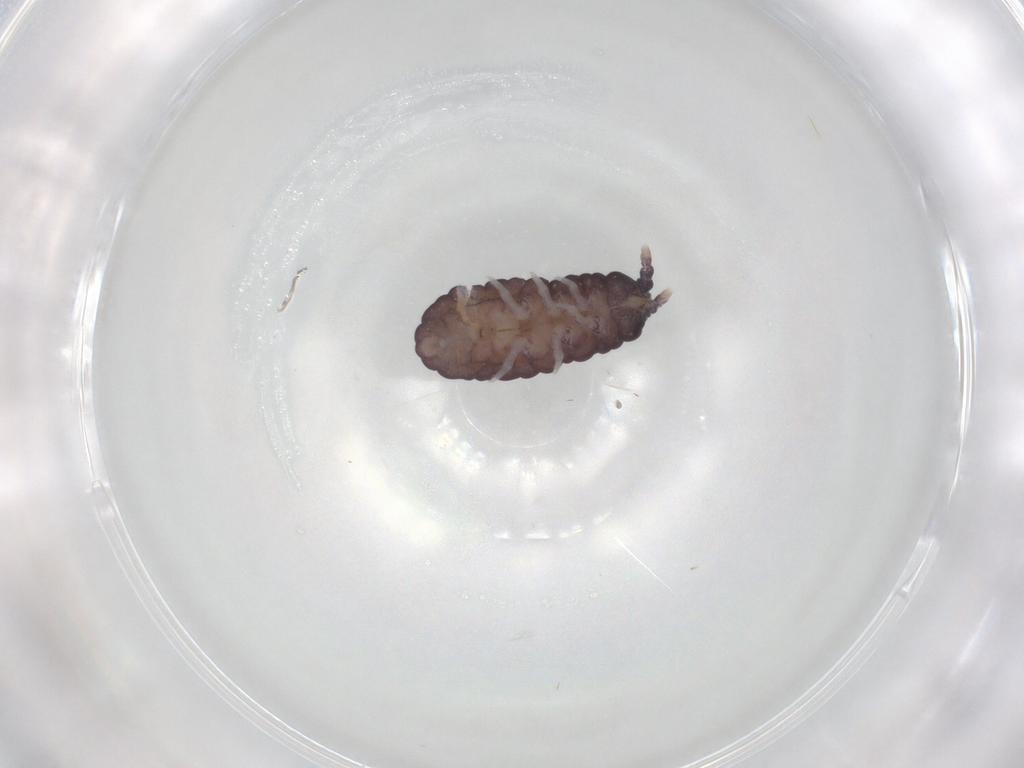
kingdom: Animalia
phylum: Arthropoda
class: Collembola
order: Poduromorpha
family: Neanuridae
